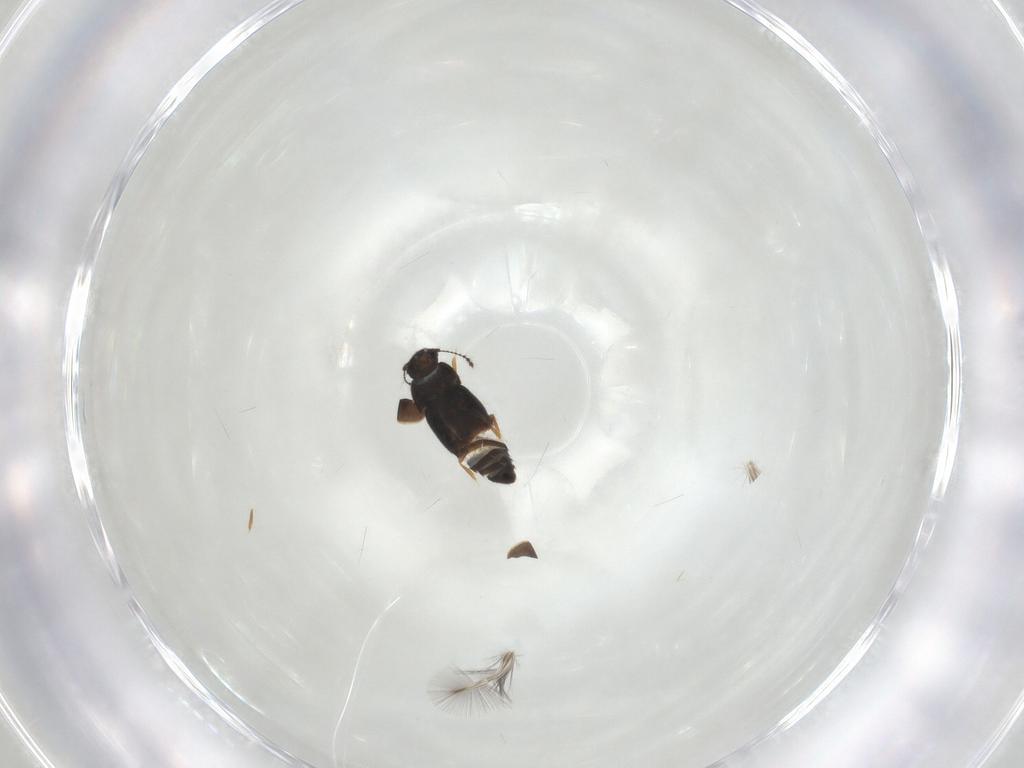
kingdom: Animalia
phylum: Arthropoda
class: Insecta
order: Coleoptera
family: Ptiliidae
